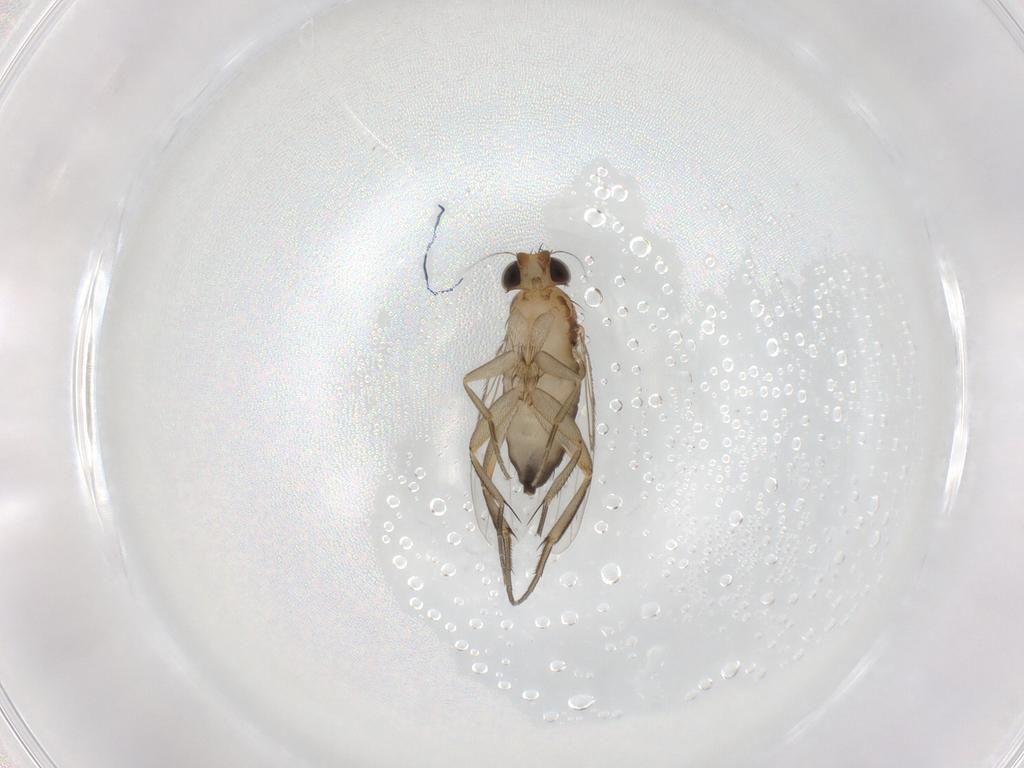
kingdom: Animalia
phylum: Arthropoda
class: Insecta
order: Diptera
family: Phoridae
